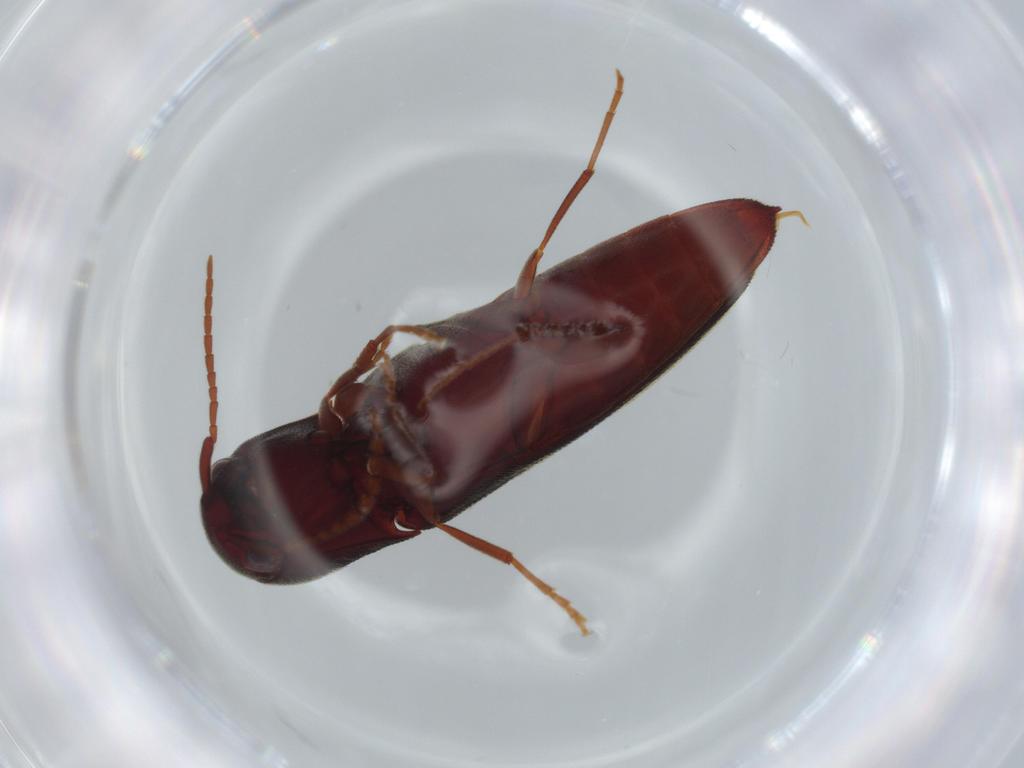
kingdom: Animalia
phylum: Arthropoda
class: Insecta
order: Coleoptera
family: Eucnemidae
